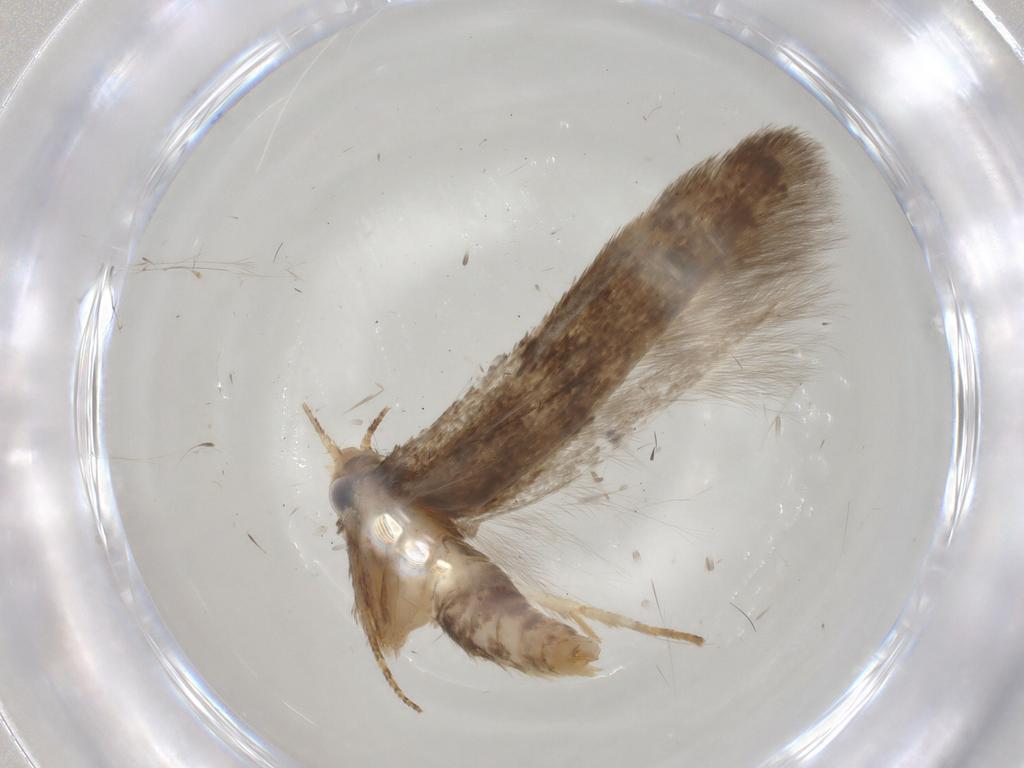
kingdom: Animalia
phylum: Arthropoda
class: Insecta
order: Lepidoptera
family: Blastobasidae
